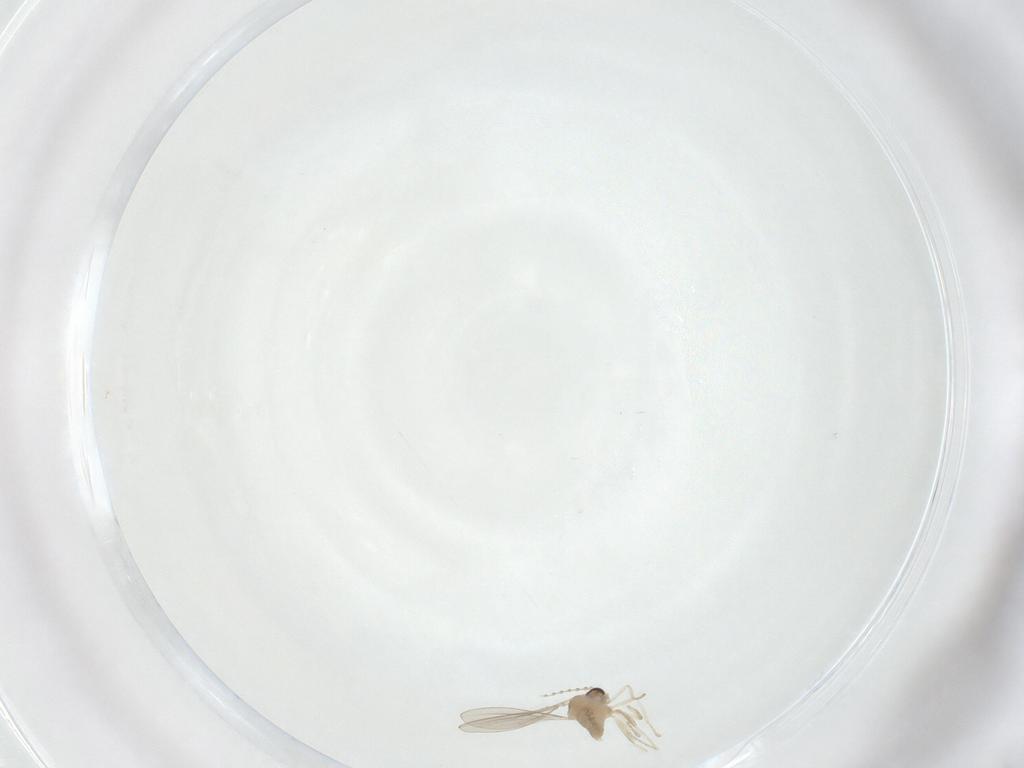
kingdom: Animalia
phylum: Arthropoda
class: Insecta
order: Diptera
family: Cecidomyiidae
